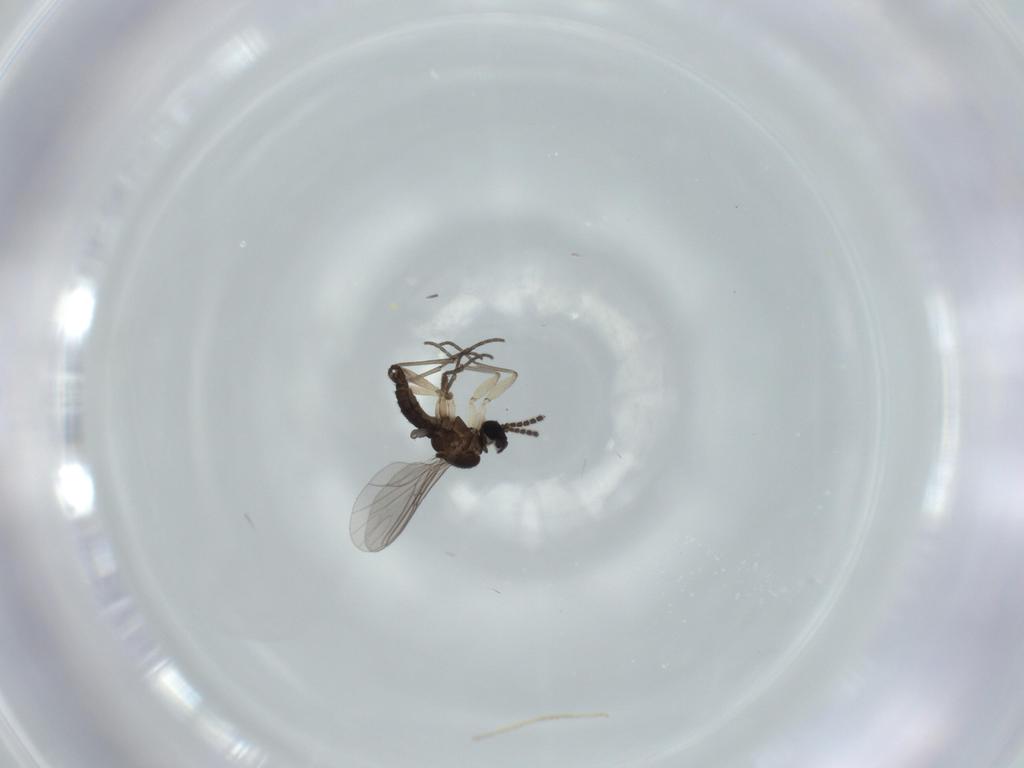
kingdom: Animalia
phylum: Arthropoda
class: Insecta
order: Diptera
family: Sciaridae
